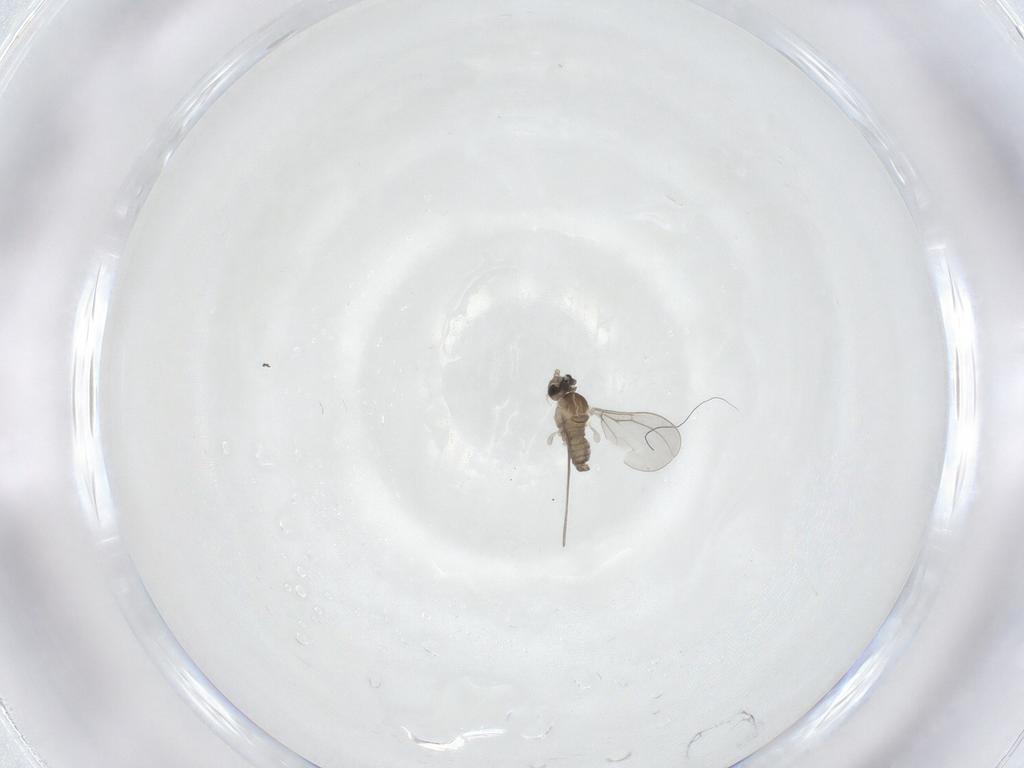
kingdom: Animalia
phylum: Arthropoda
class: Insecta
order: Diptera
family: Cecidomyiidae
